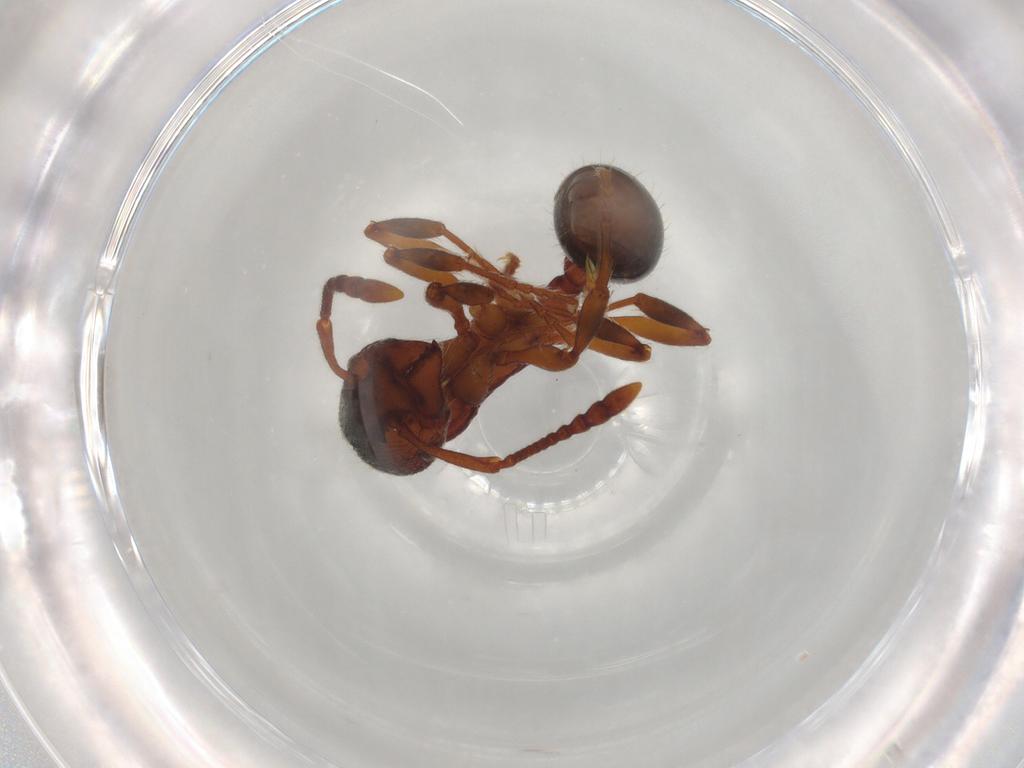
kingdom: Animalia
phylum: Arthropoda
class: Insecta
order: Hymenoptera
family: Formicidae
